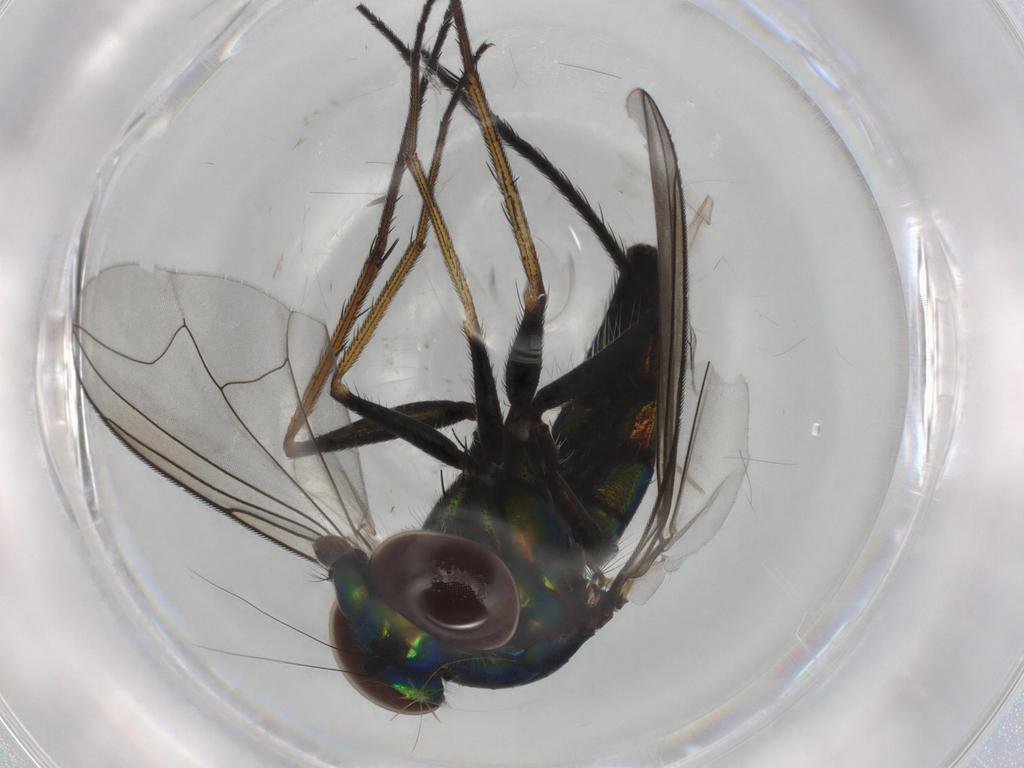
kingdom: Animalia
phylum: Arthropoda
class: Insecta
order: Diptera
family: Dolichopodidae
